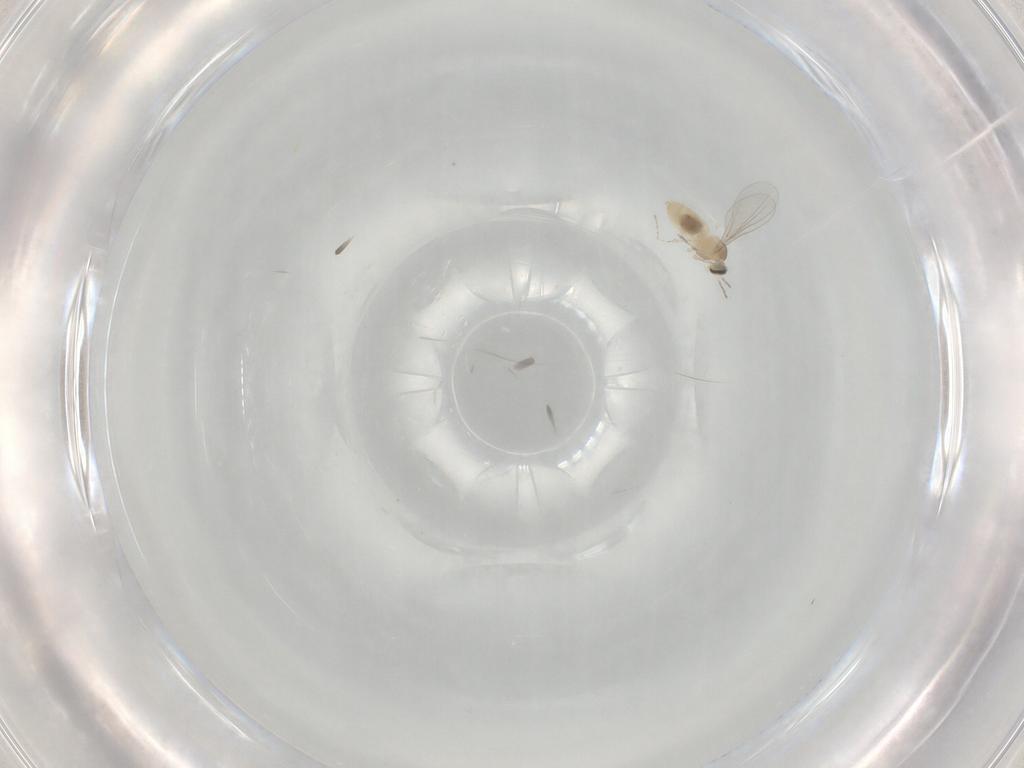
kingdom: Animalia
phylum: Arthropoda
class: Insecta
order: Diptera
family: Cecidomyiidae
